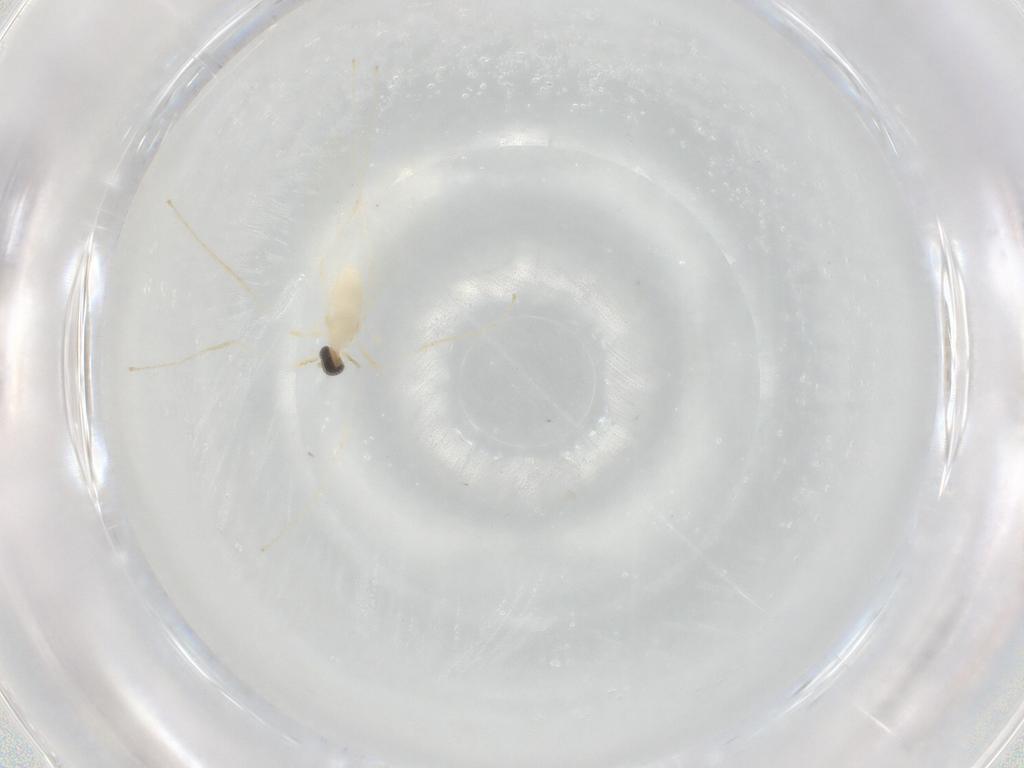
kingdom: Animalia
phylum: Arthropoda
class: Insecta
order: Diptera
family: Cecidomyiidae
